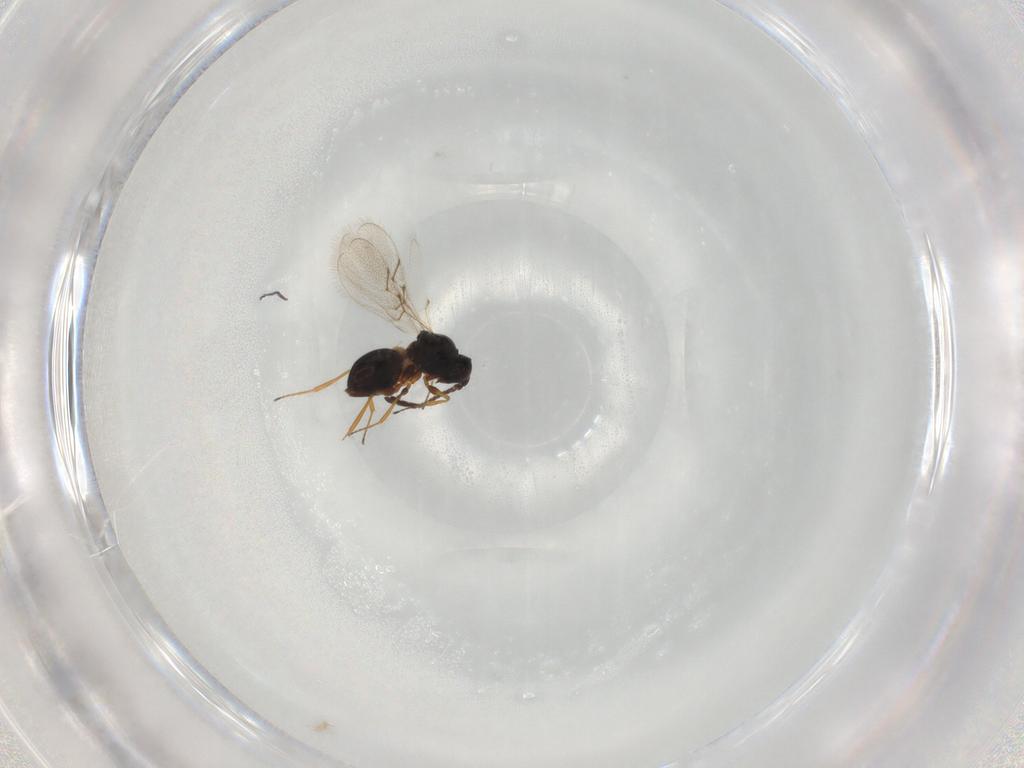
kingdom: Animalia
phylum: Arthropoda
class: Insecta
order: Hymenoptera
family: Figitidae
